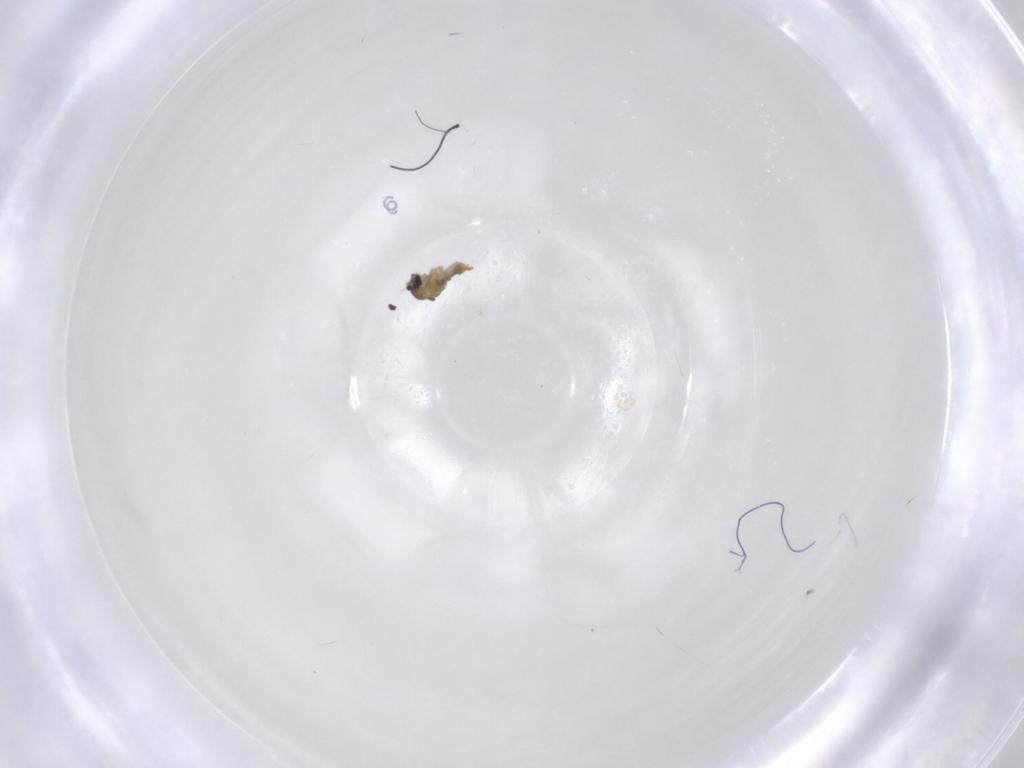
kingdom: Animalia
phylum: Arthropoda
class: Insecta
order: Diptera
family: Cecidomyiidae
